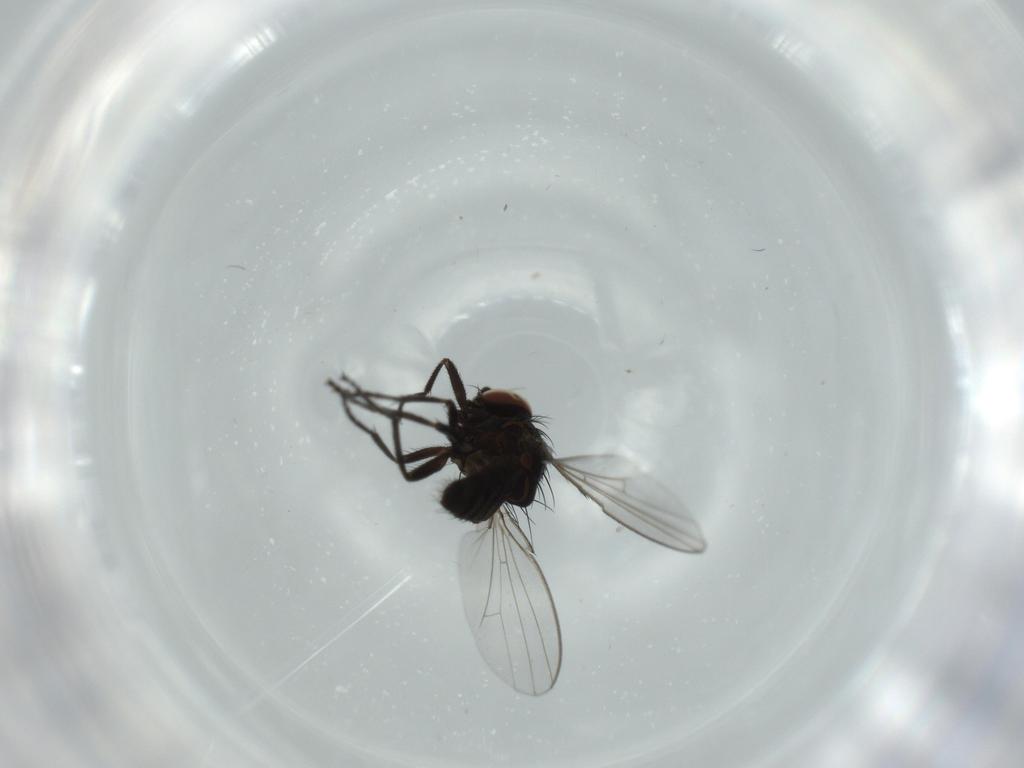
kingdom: Animalia
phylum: Arthropoda
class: Insecta
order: Diptera
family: Milichiidae
